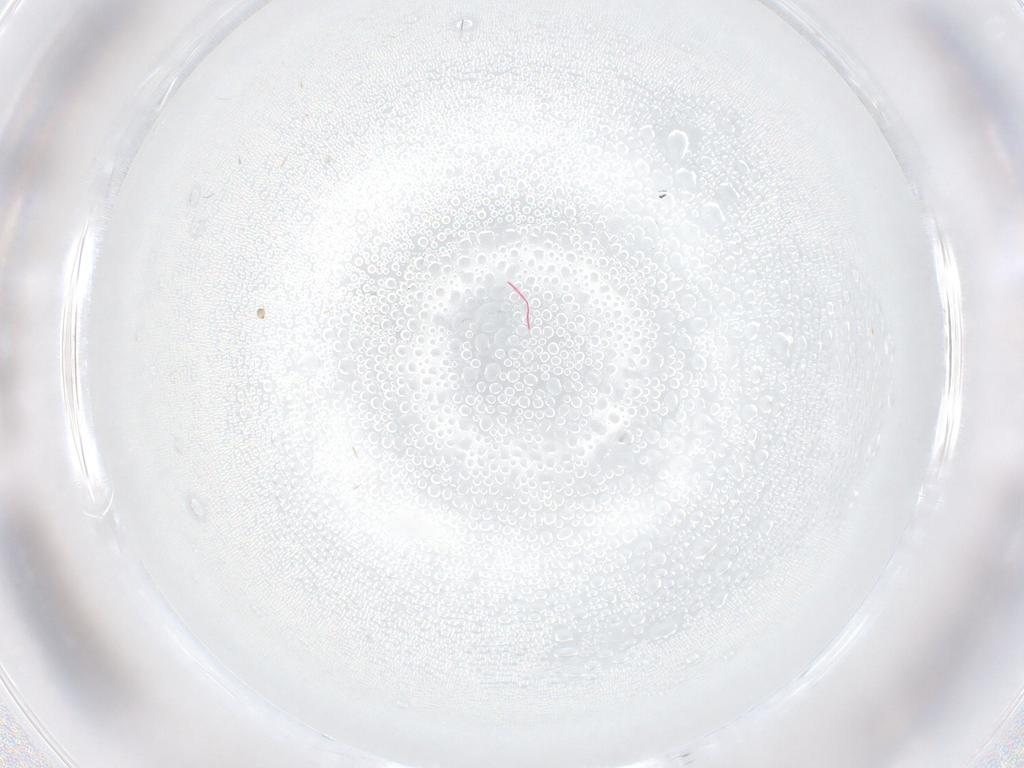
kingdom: Animalia
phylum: Arthropoda
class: Insecta
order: Diptera
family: Cecidomyiidae
